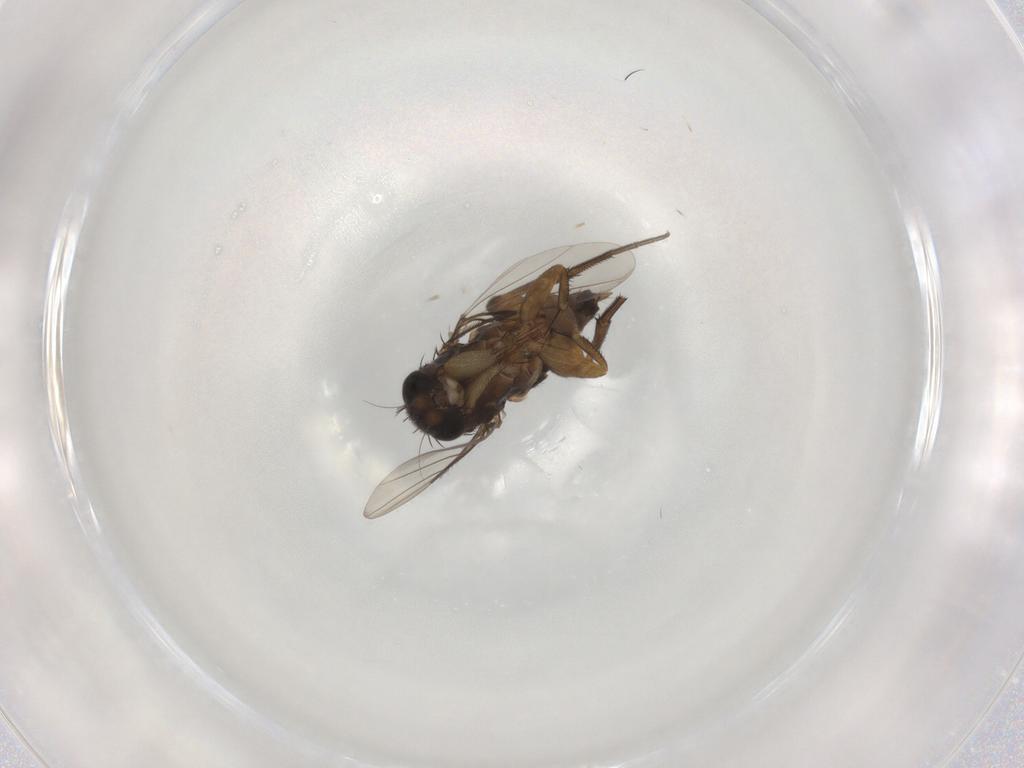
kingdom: Animalia
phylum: Arthropoda
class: Insecta
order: Diptera
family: Phoridae
